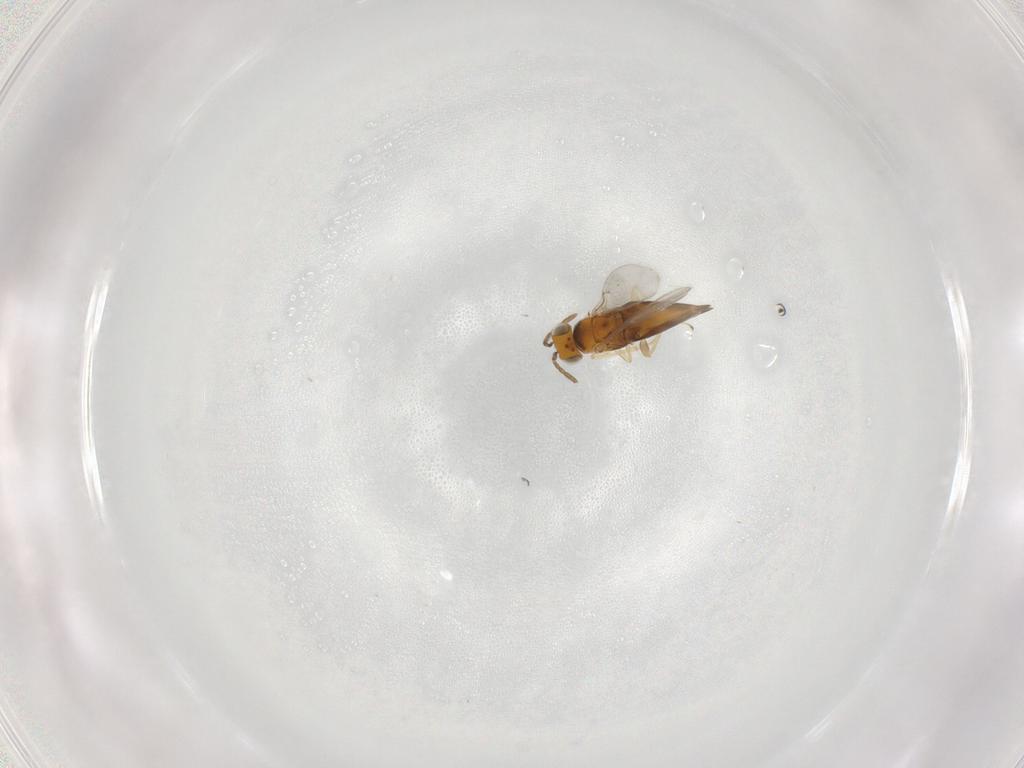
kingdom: Animalia
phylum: Arthropoda
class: Insecta
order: Hymenoptera
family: Encyrtidae
